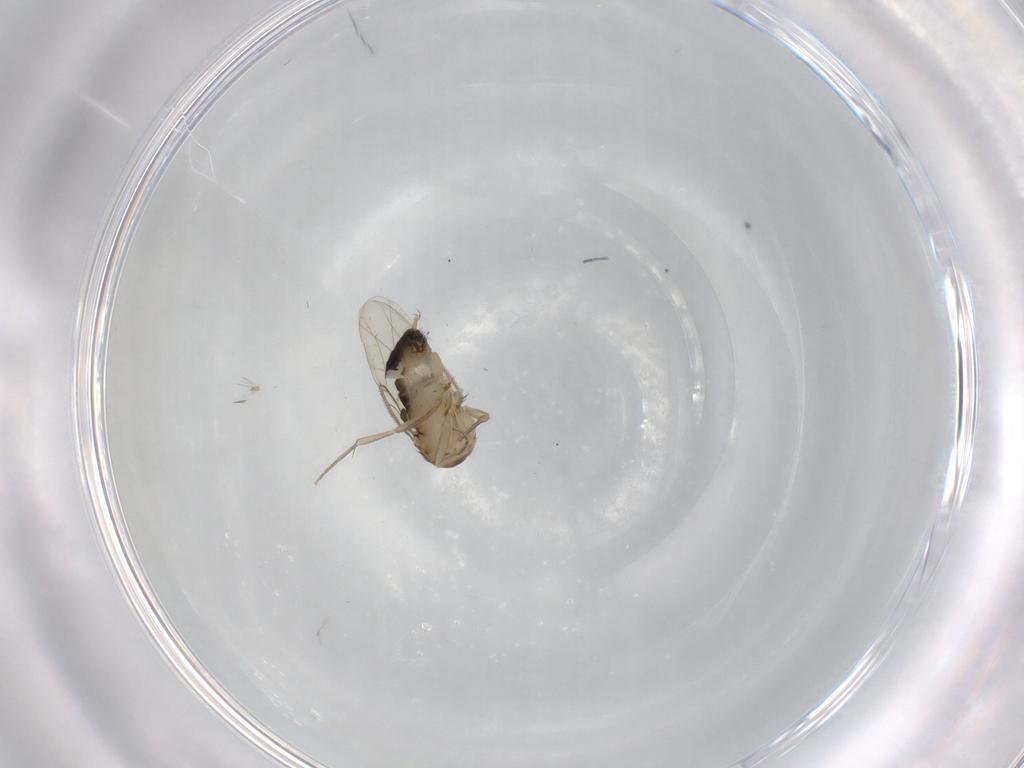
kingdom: Animalia
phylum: Arthropoda
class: Insecta
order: Diptera
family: Phoridae
